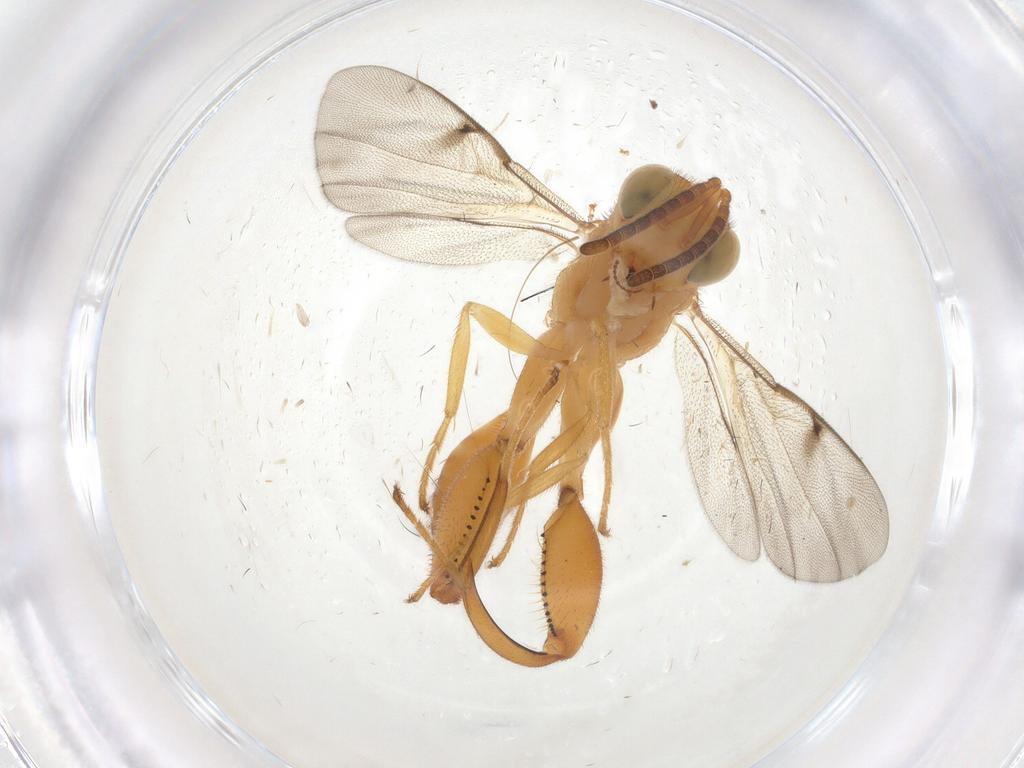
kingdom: Animalia
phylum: Arthropoda
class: Insecta
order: Hymenoptera
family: Chalcididae
